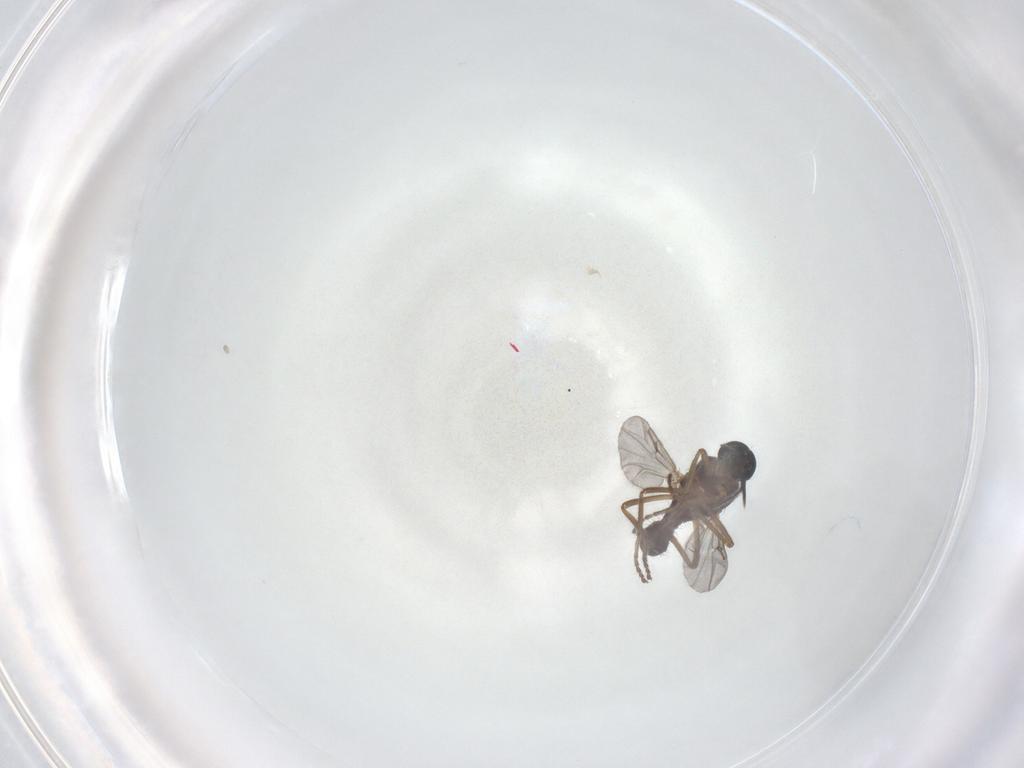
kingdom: Animalia
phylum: Arthropoda
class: Insecta
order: Diptera
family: Ceratopogonidae
